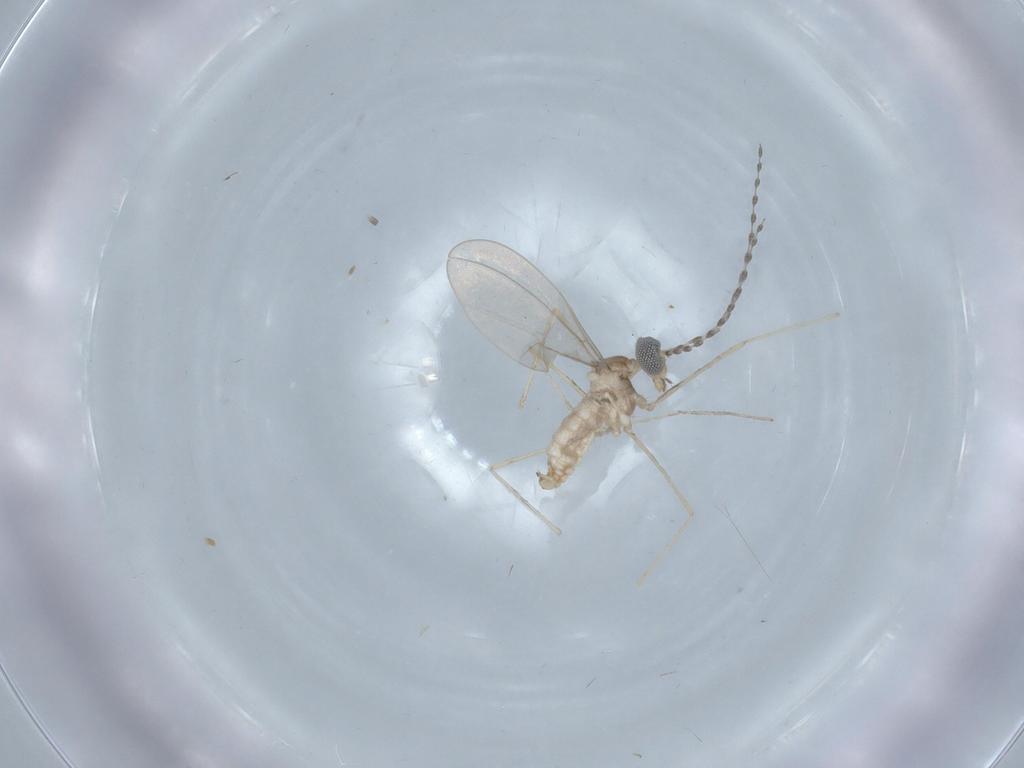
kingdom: Animalia
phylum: Arthropoda
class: Insecta
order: Diptera
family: Cecidomyiidae
